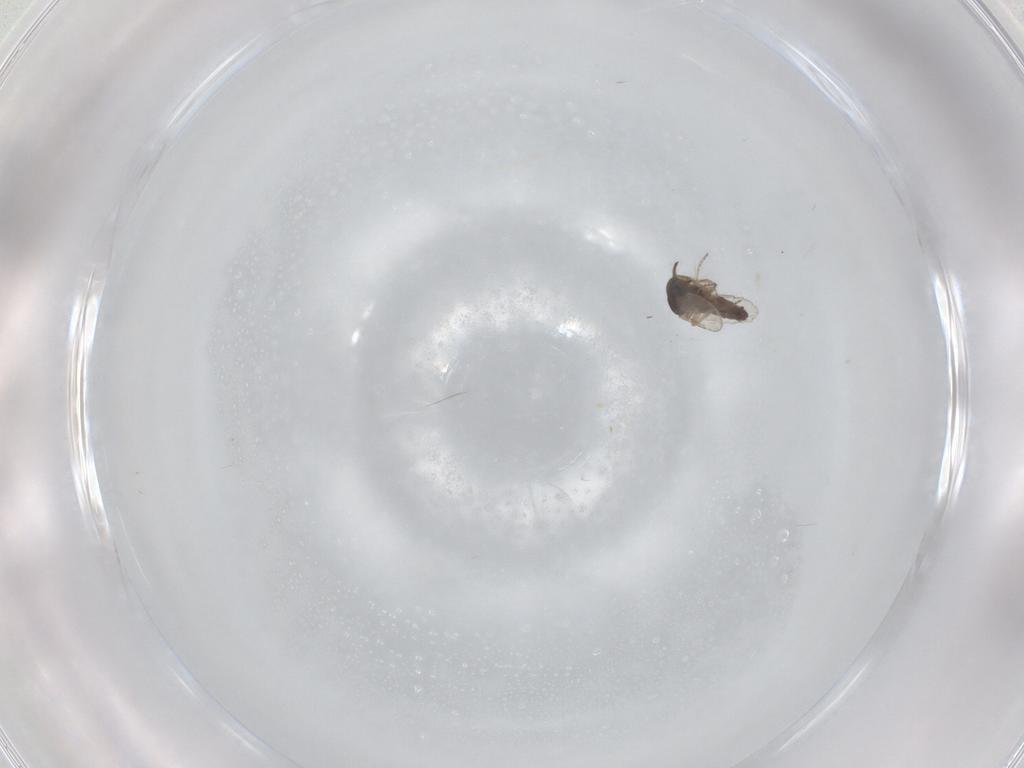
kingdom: Animalia
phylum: Arthropoda
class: Insecta
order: Diptera
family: Ceratopogonidae
